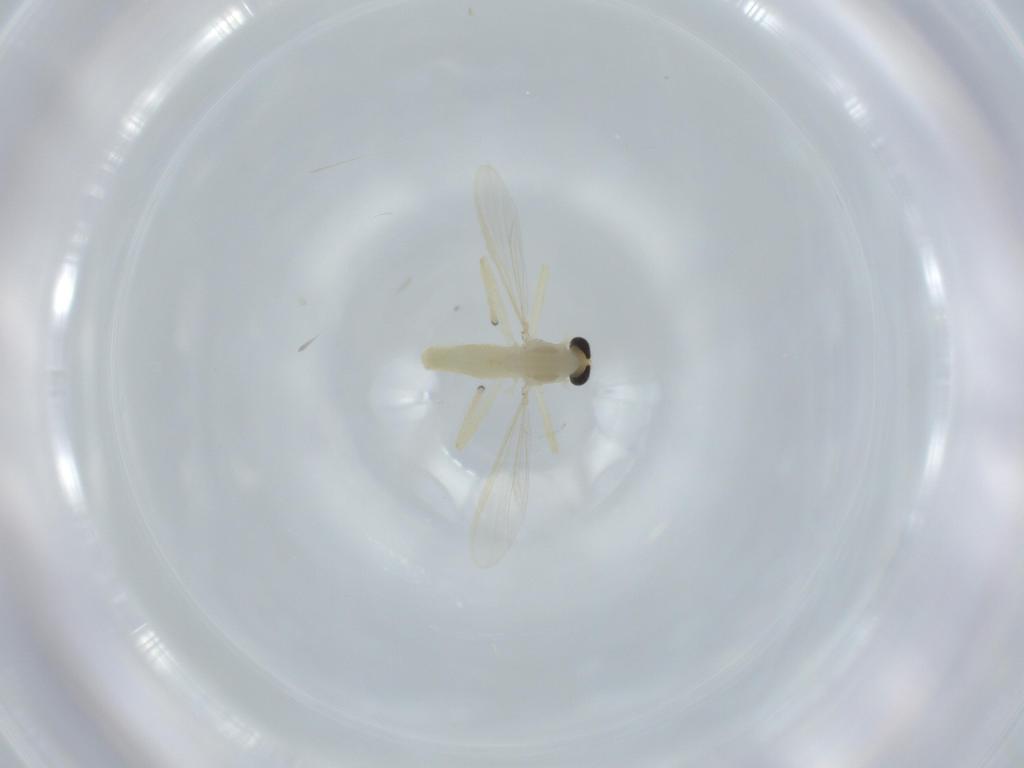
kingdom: Animalia
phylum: Arthropoda
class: Insecta
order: Diptera
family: Chironomidae
